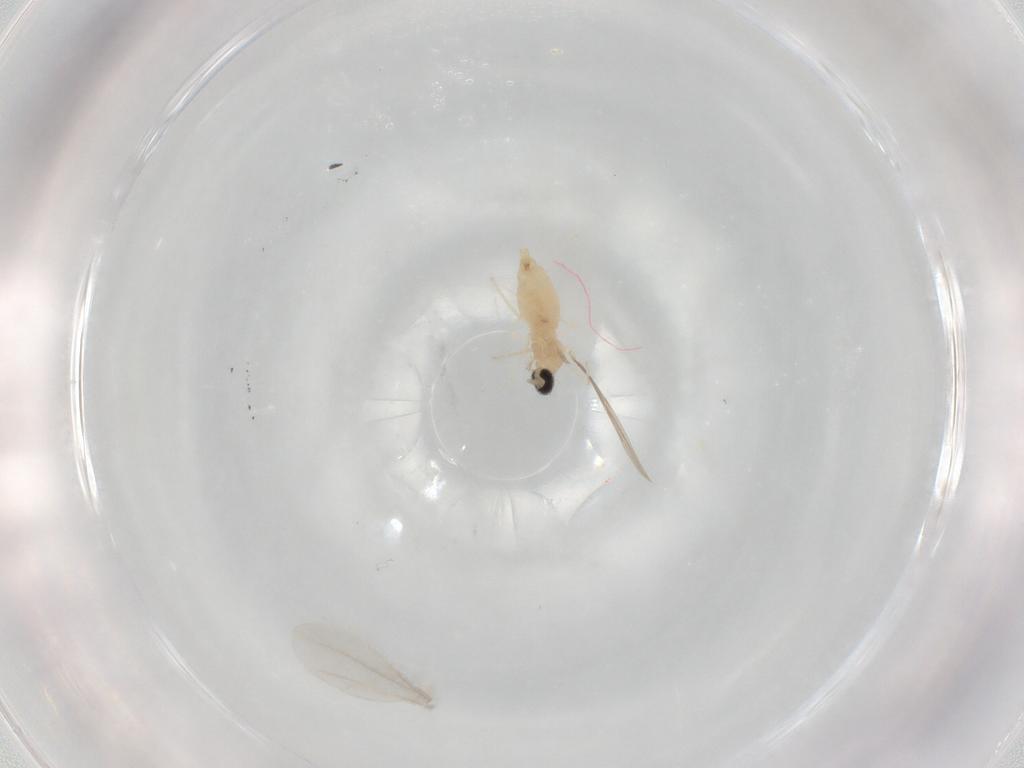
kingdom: Animalia
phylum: Arthropoda
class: Insecta
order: Diptera
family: Cecidomyiidae
